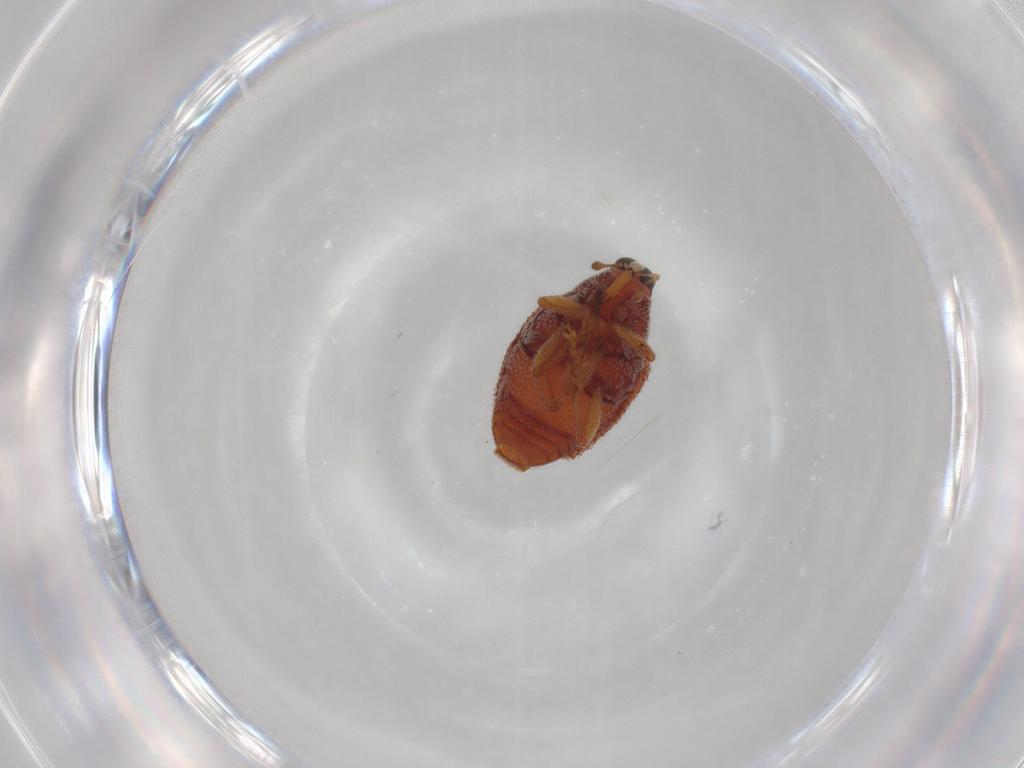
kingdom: Animalia
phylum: Arthropoda
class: Insecta
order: Coleoptera
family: Curculionidae
